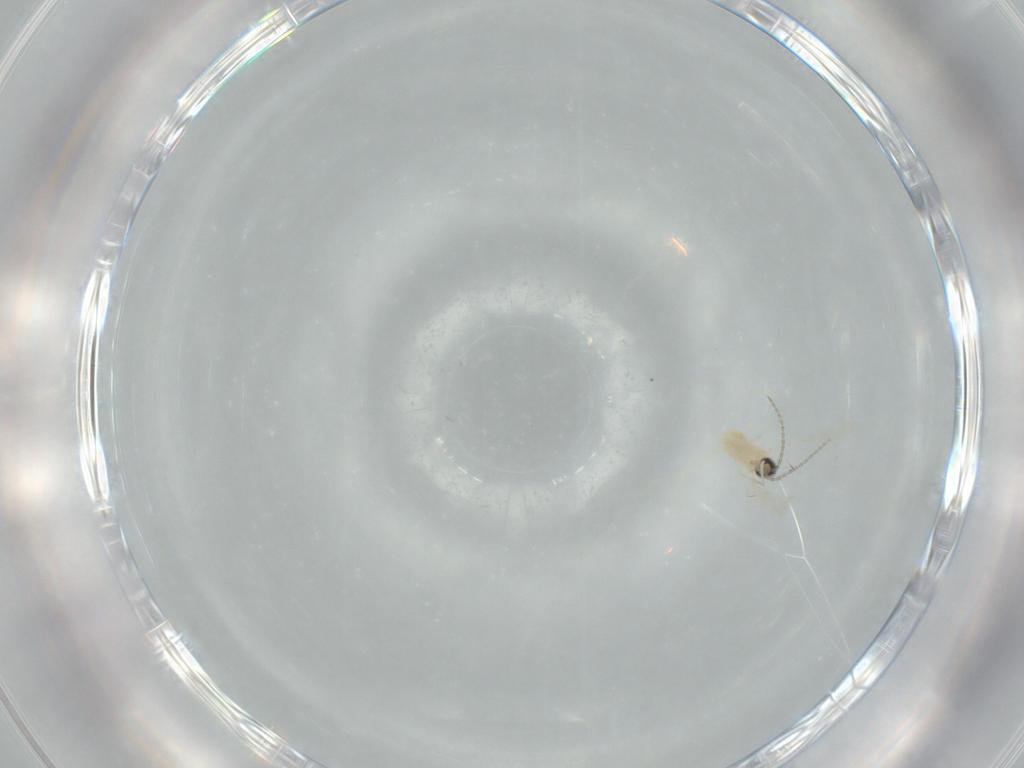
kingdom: Animalia
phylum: Arthropoda
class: Insecta
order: Diptera
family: Cecidomyiidae
